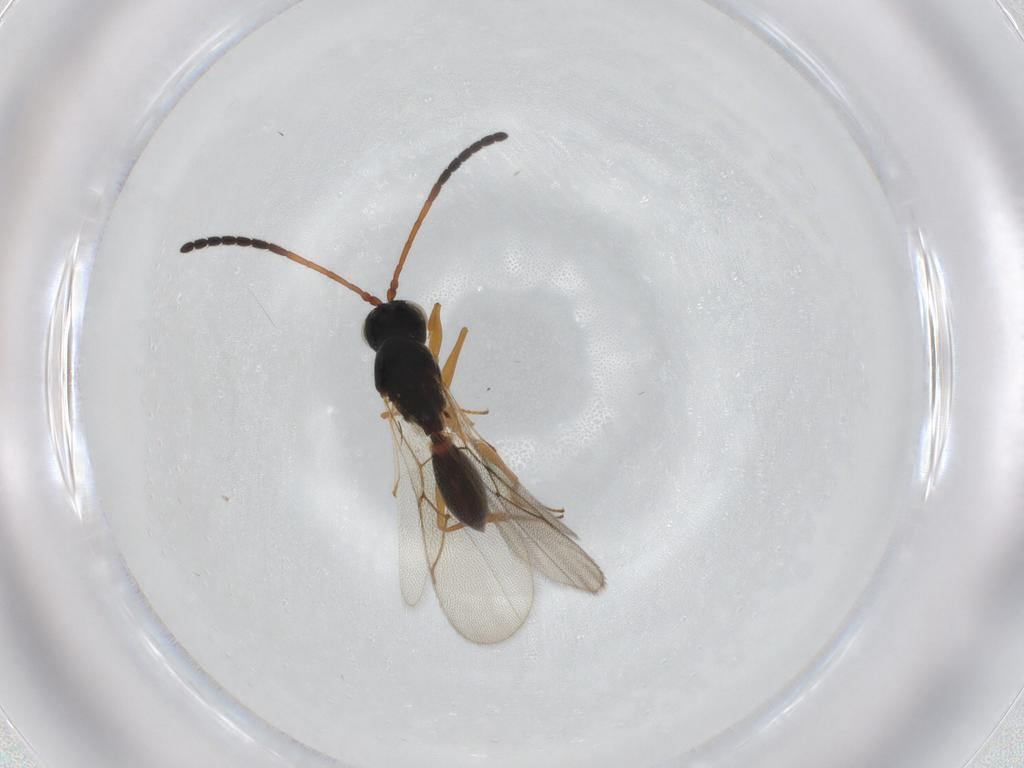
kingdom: Animalia
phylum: Arthropoda
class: Insecta
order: Hymenoptera
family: Figitidae
